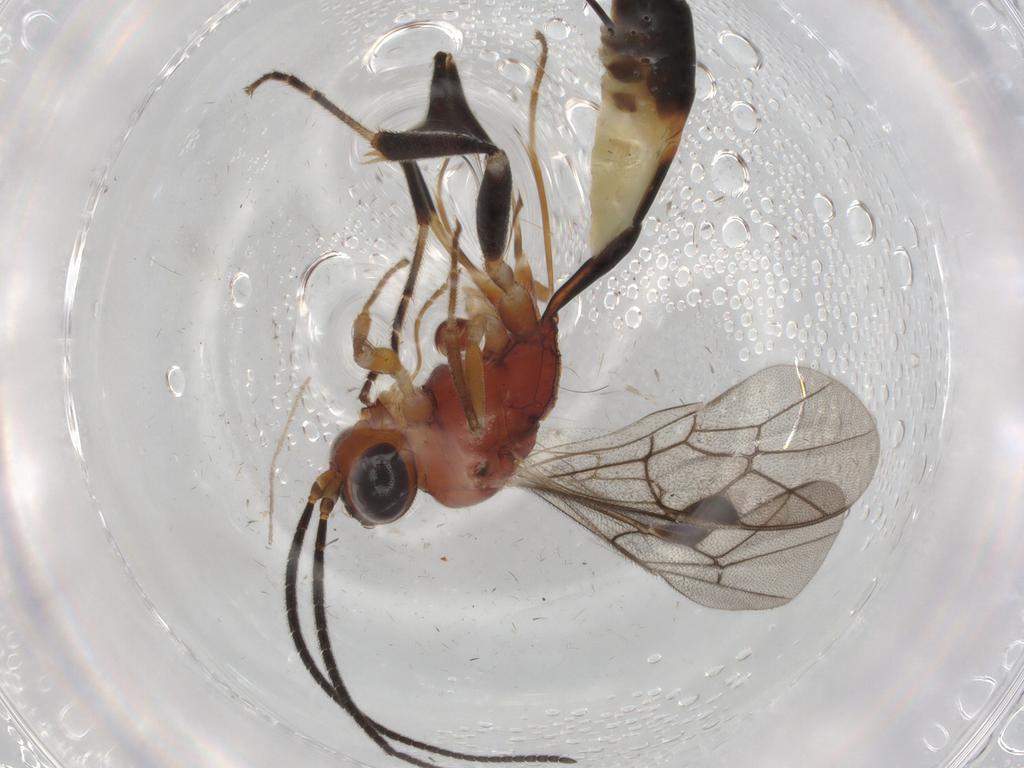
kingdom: Animalia
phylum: Arthropoda
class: Insecta
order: Hymenoptera
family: Ichneumonidae
